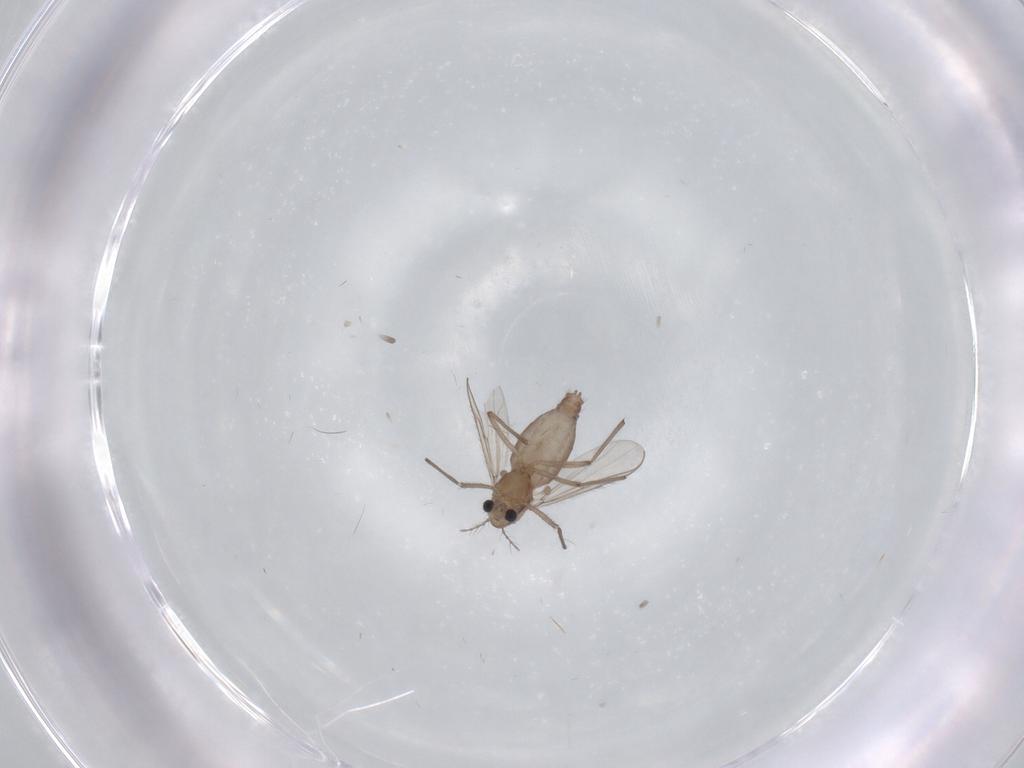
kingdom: Animalia
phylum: Arthropoda
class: Insecta
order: Diptera
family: Chironomidae
